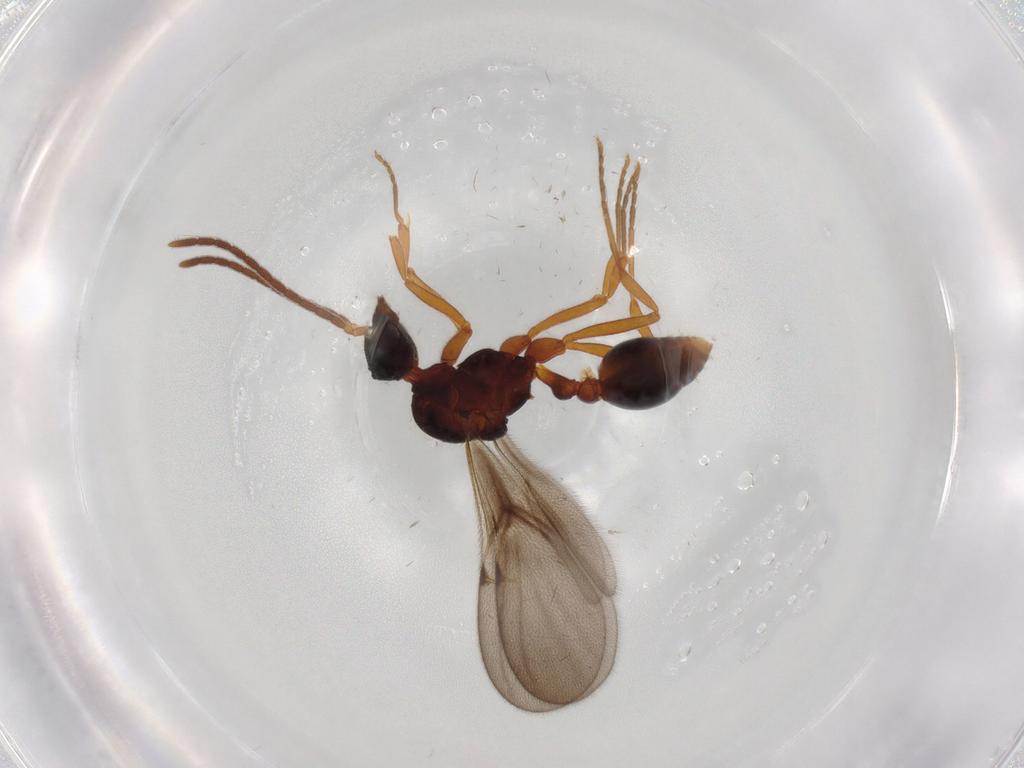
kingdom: Animalia
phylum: Arthropoda
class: Insecta
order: Hymenoptera
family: Formicidae
